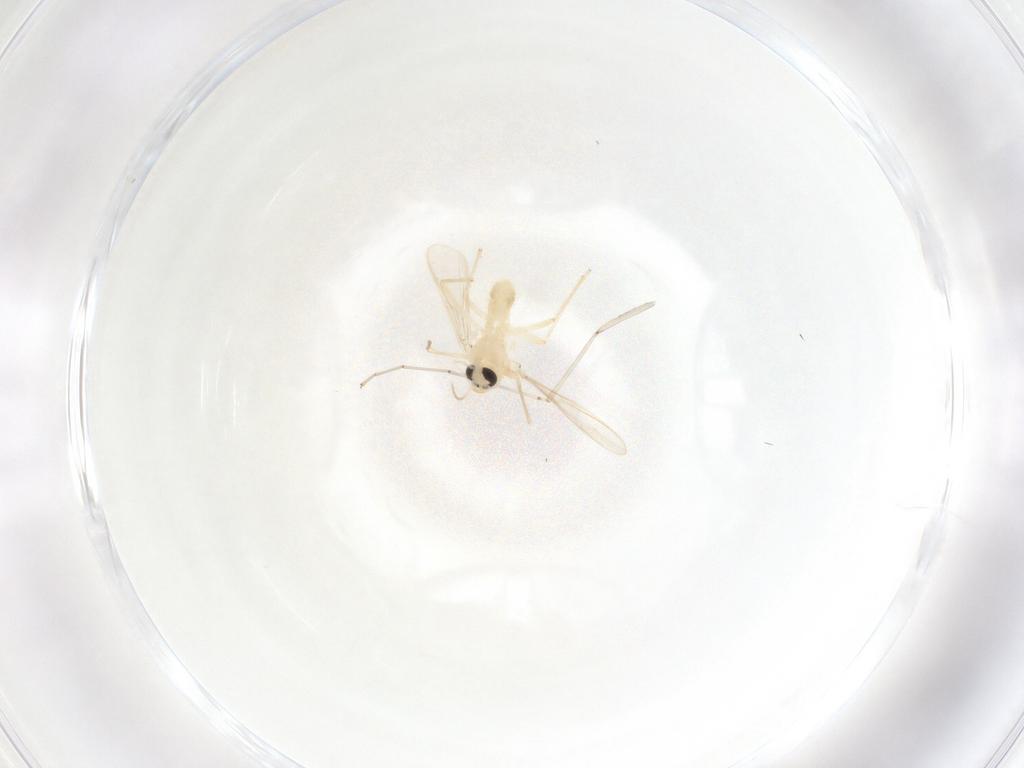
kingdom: Animalia
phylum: Arthropoda
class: Insecta
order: Diptera
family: Chironomidae
